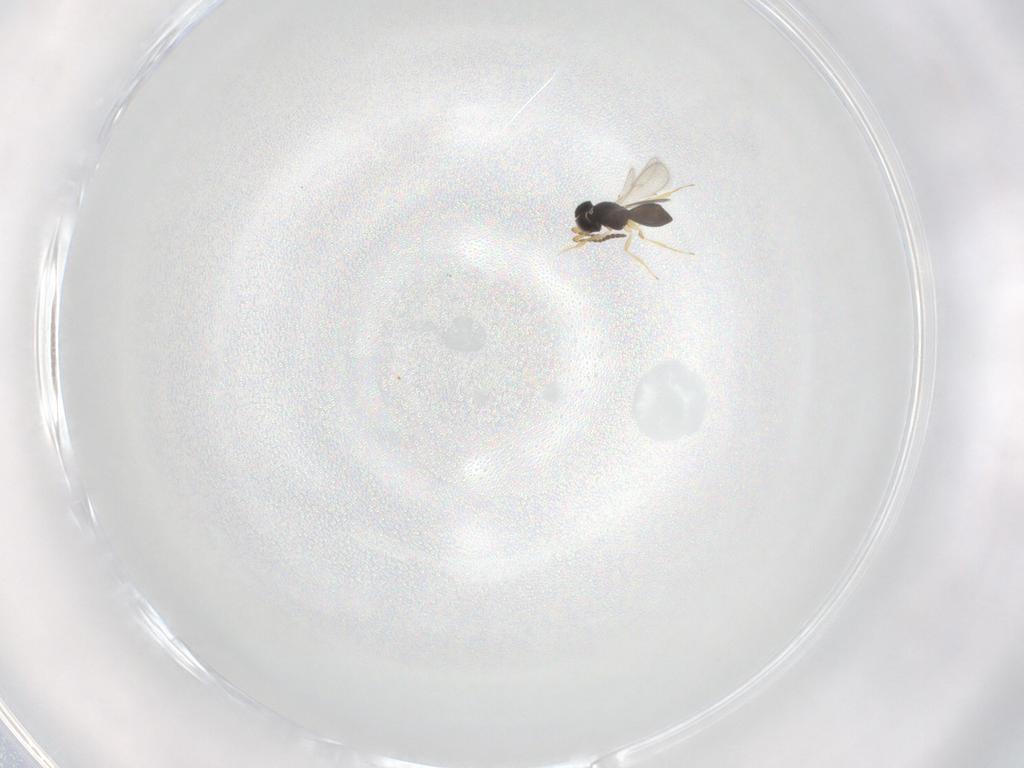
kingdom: Animalia
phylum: Arthropoda
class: Insecta
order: Hymenoptera
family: Scelionidae
